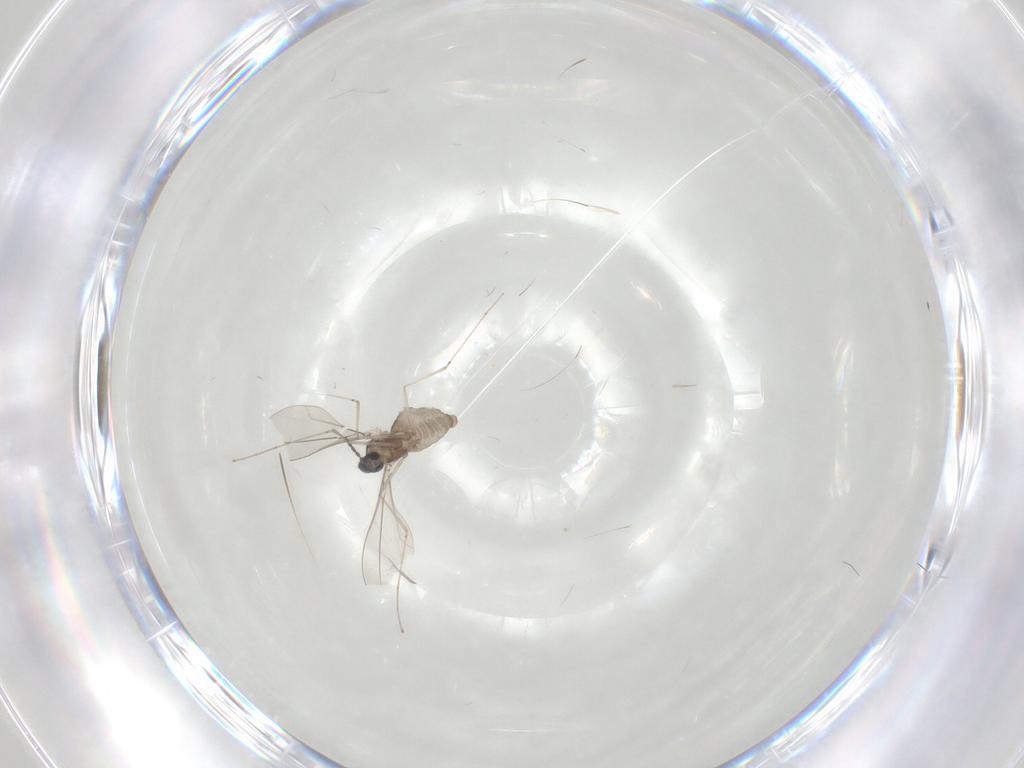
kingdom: Animalia
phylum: Arthropoda
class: Insecta
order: Diptera
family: Cecidomyiidae
